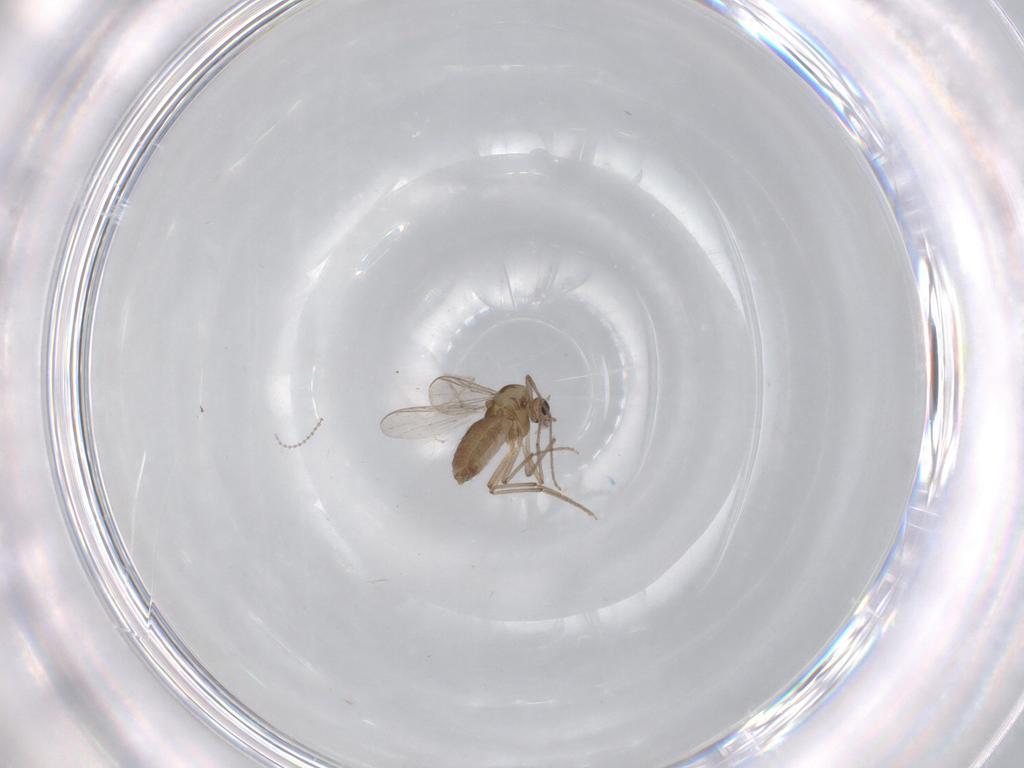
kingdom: Animalia
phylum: Arthropoda
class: Insecta
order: Diptera
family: Chironomidae
